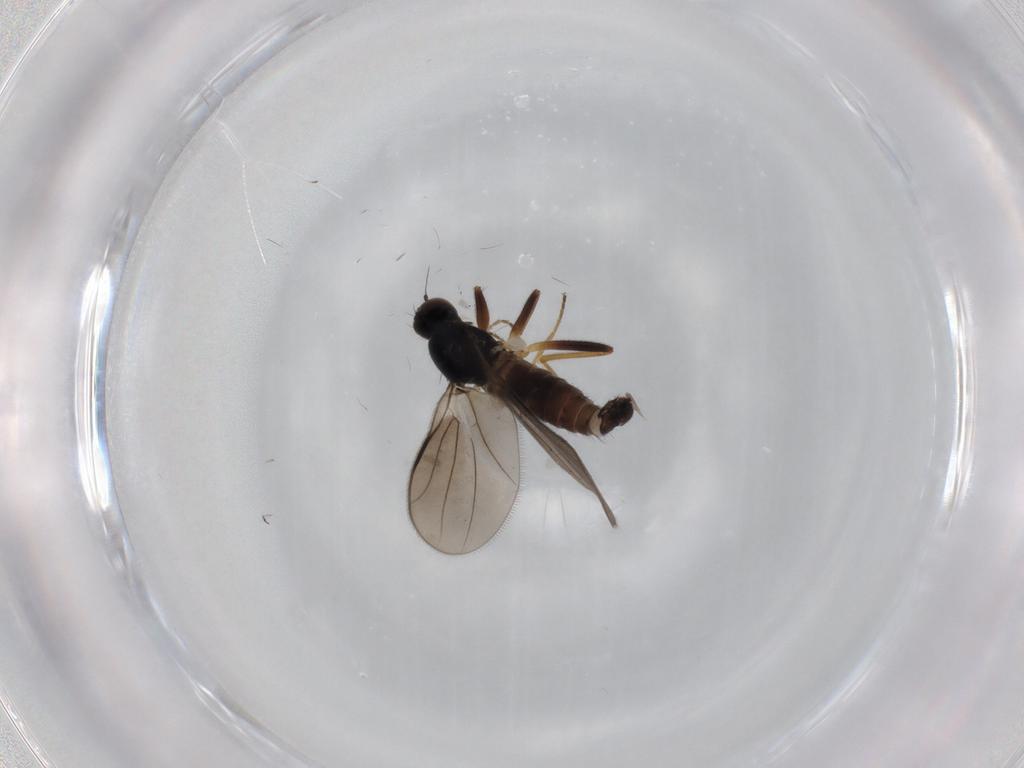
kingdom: Animalia
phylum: Arthropoda
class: Insecta
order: Diptera
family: Hybotidae
